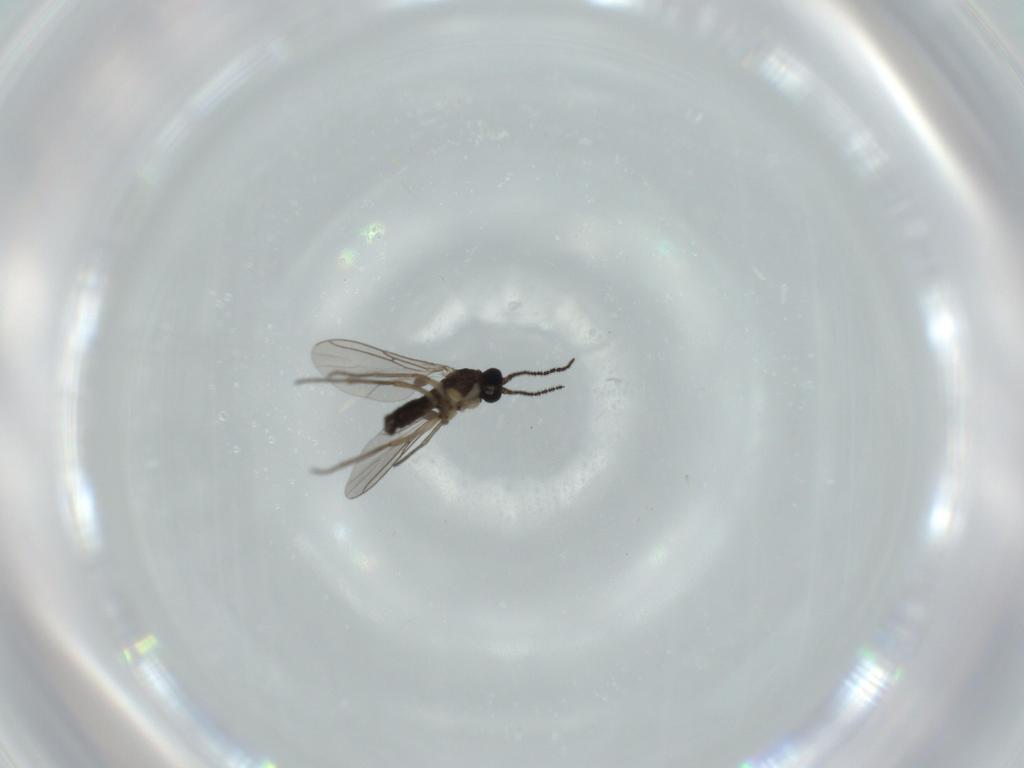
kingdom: Animalia
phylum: Arthropoda
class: Insecta
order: Diptera
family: Sciaridae
